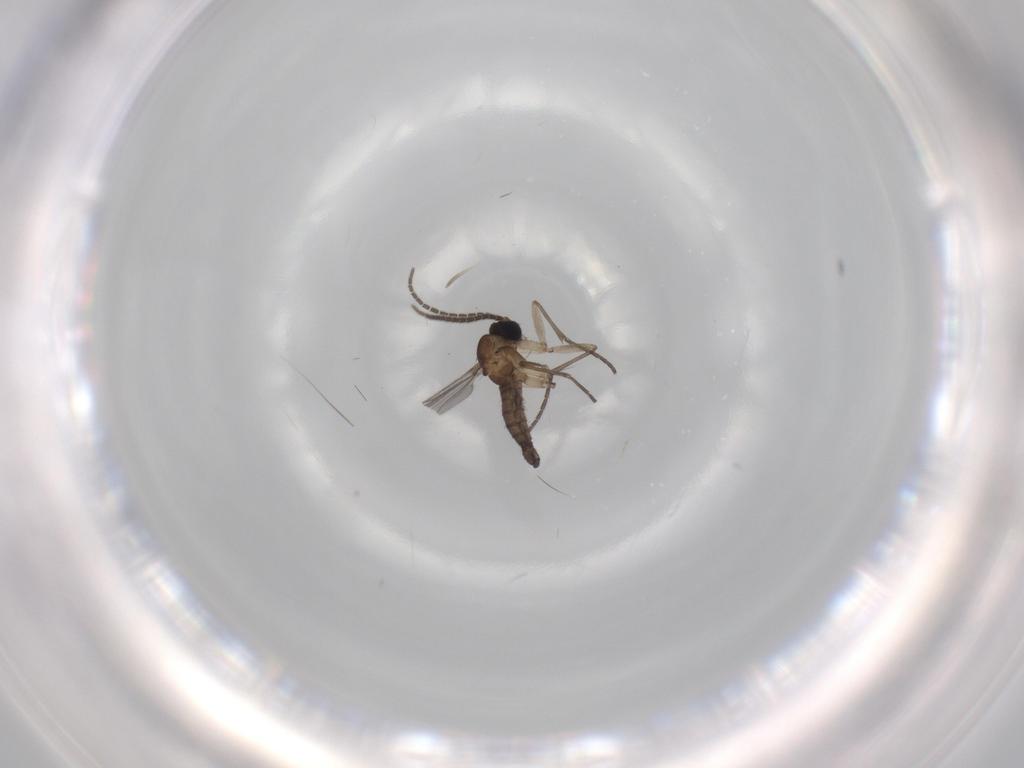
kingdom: Animalia
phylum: Arthropoda
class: Insecta
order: Diptera
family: Sciaridae
